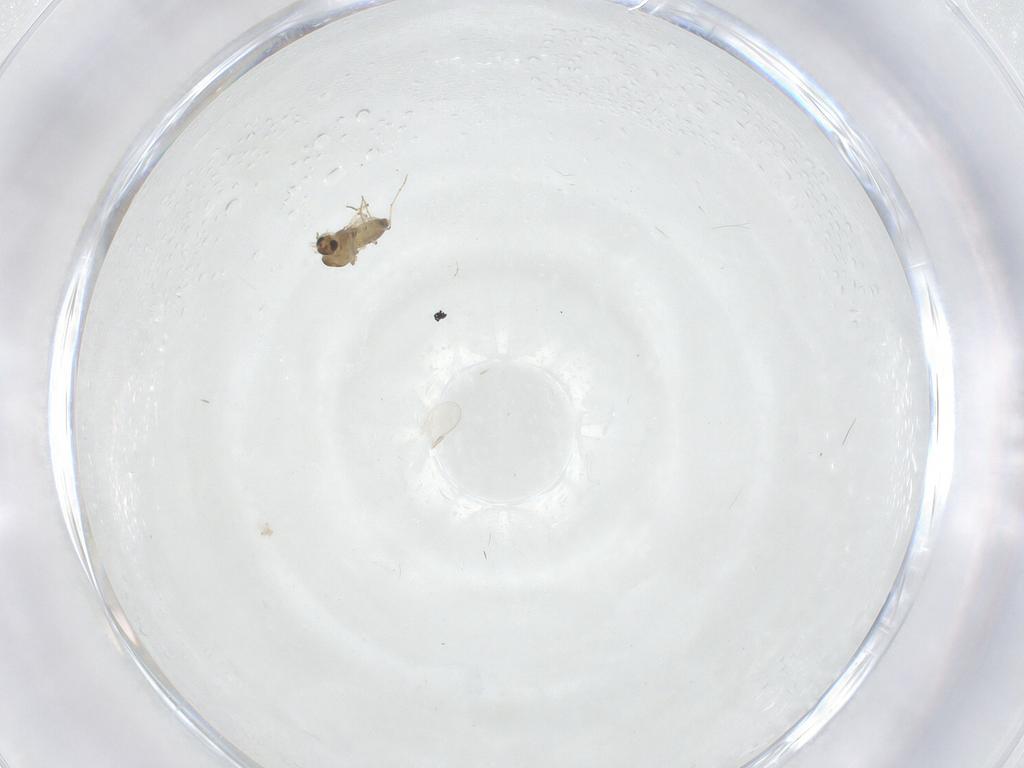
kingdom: Animalia
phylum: Arthropoda
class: Insecta
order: Diptera
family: Chironomidae
